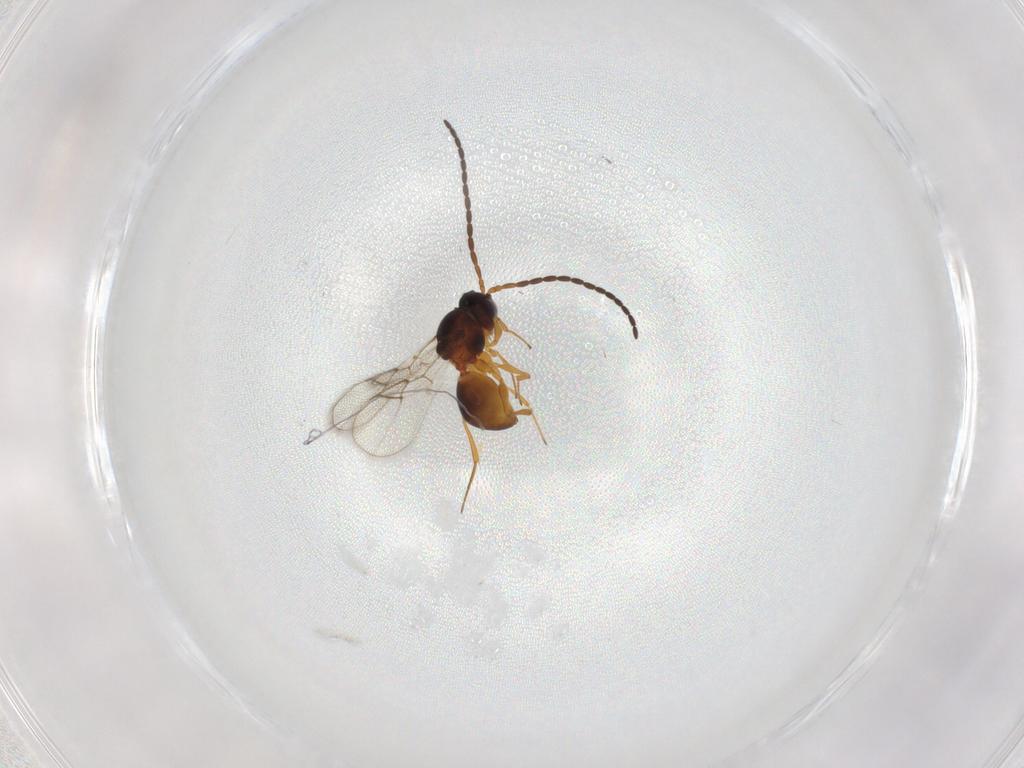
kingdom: Animalia
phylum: Arthropoda
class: Insecta
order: Hymenoptera
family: Figitidae
